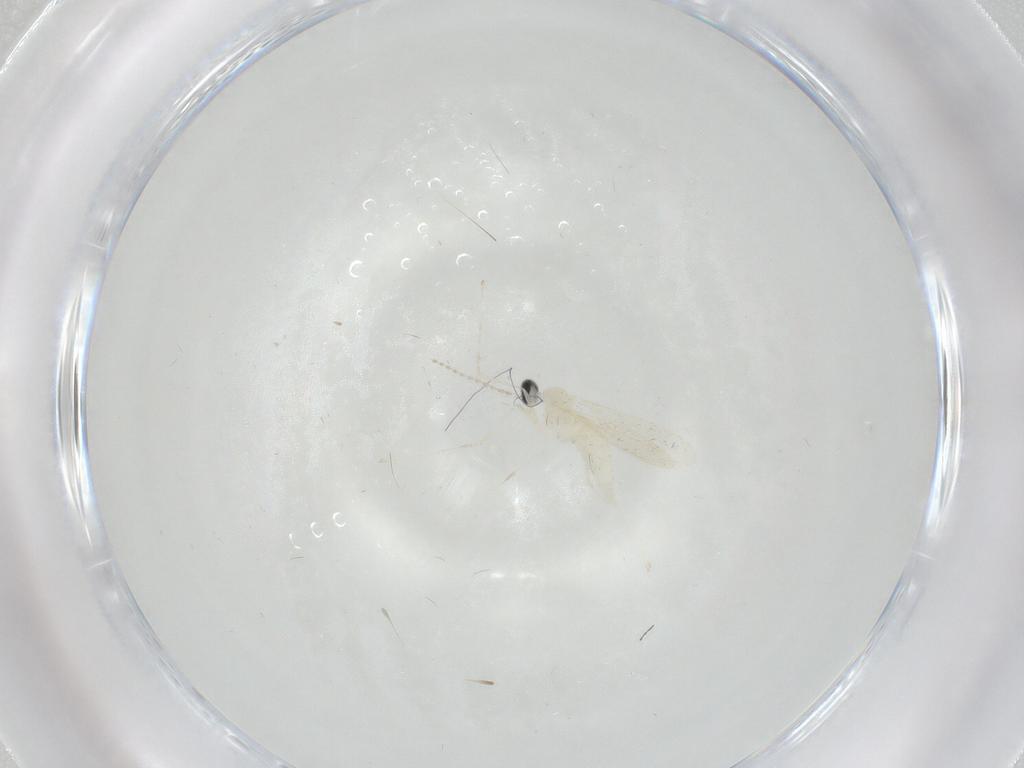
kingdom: Animalia
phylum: Arthropoda
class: Insecta
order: Diptera
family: Cecidomyiidae
